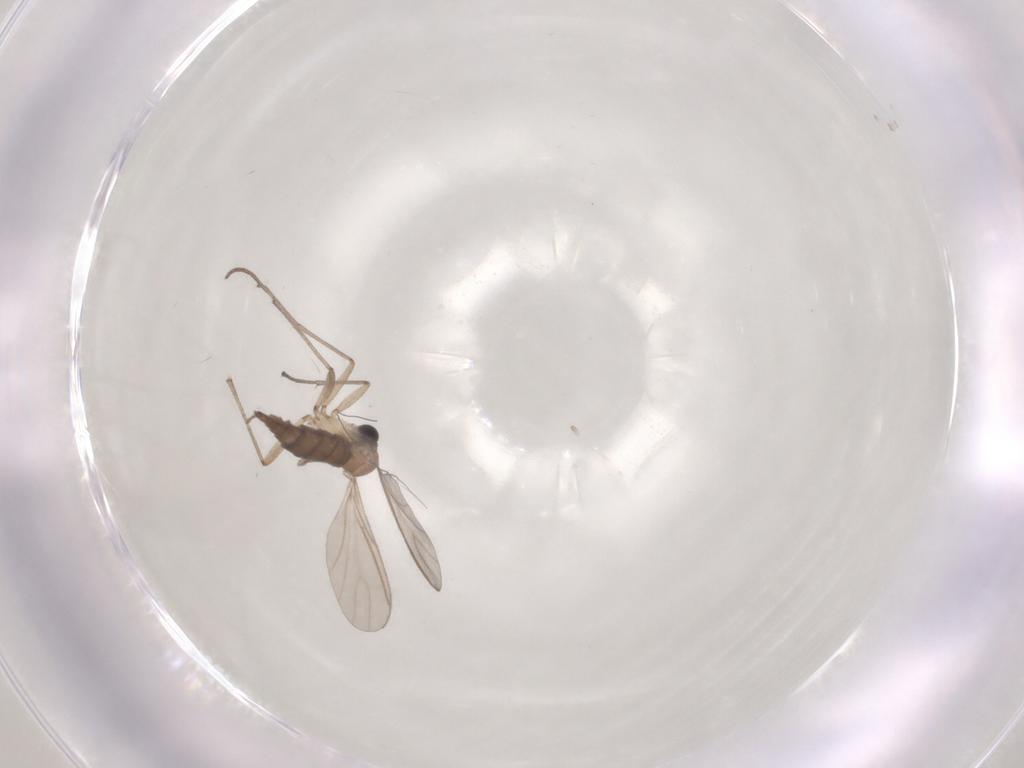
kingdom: Animalia
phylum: Arthropoda
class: Insecta
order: Diptera
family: Sciaridae
